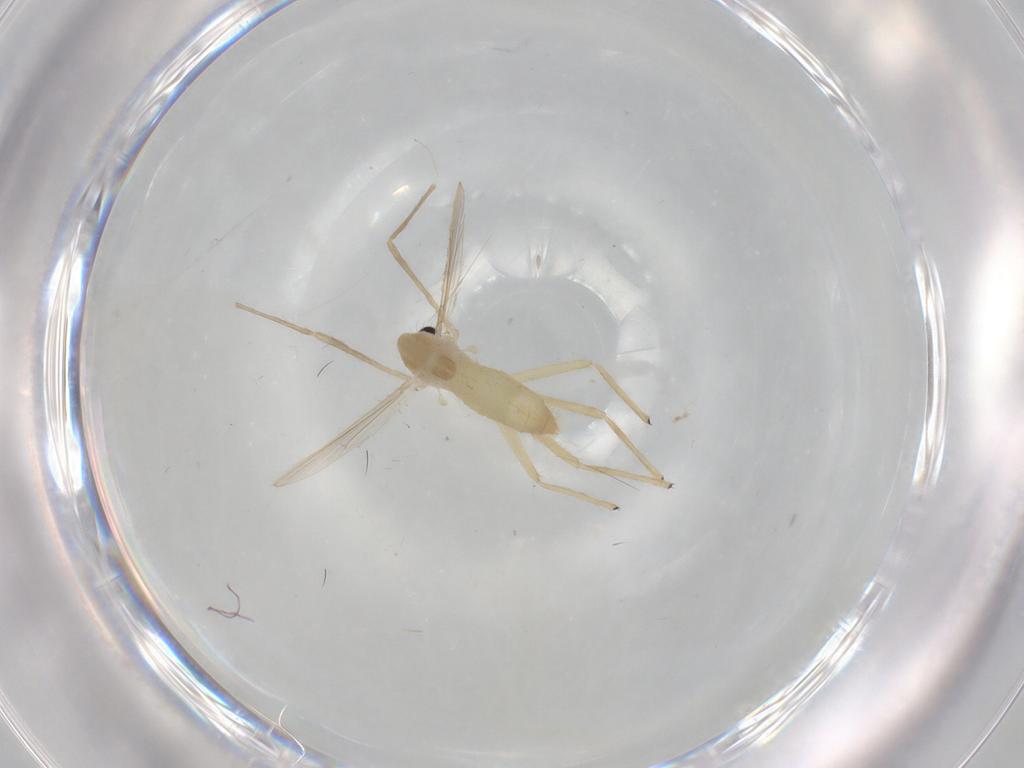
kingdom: Animalia
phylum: Arthropoda
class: Insecta
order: Diptera
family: Chironomidae
